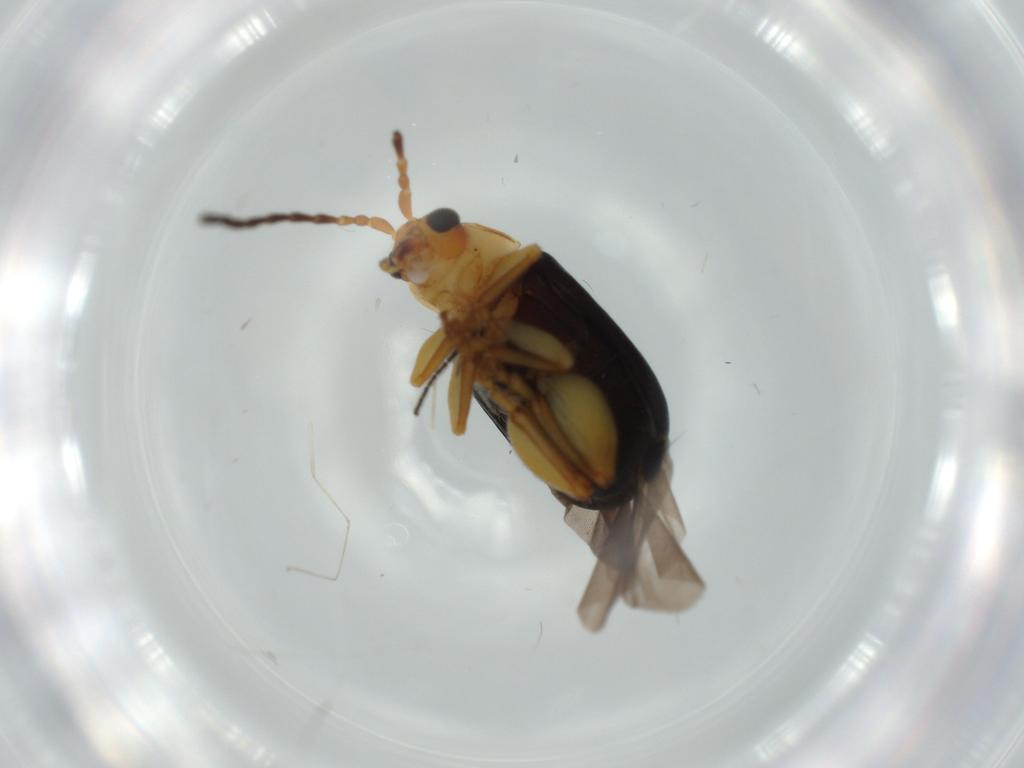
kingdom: Animalia
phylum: Arthropoda
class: Insecta
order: Coleoptera
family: Chrysomelidae
